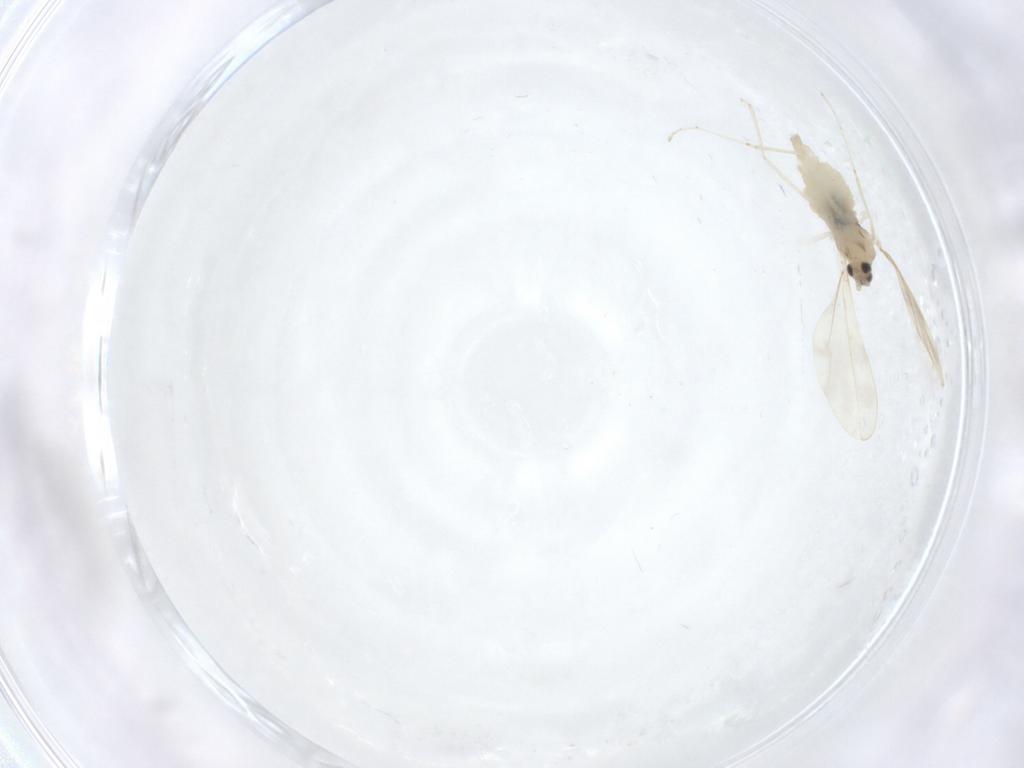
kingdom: Animalia
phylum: Arthropoda
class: Insecta
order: Diptera
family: Cecidomyiidae
